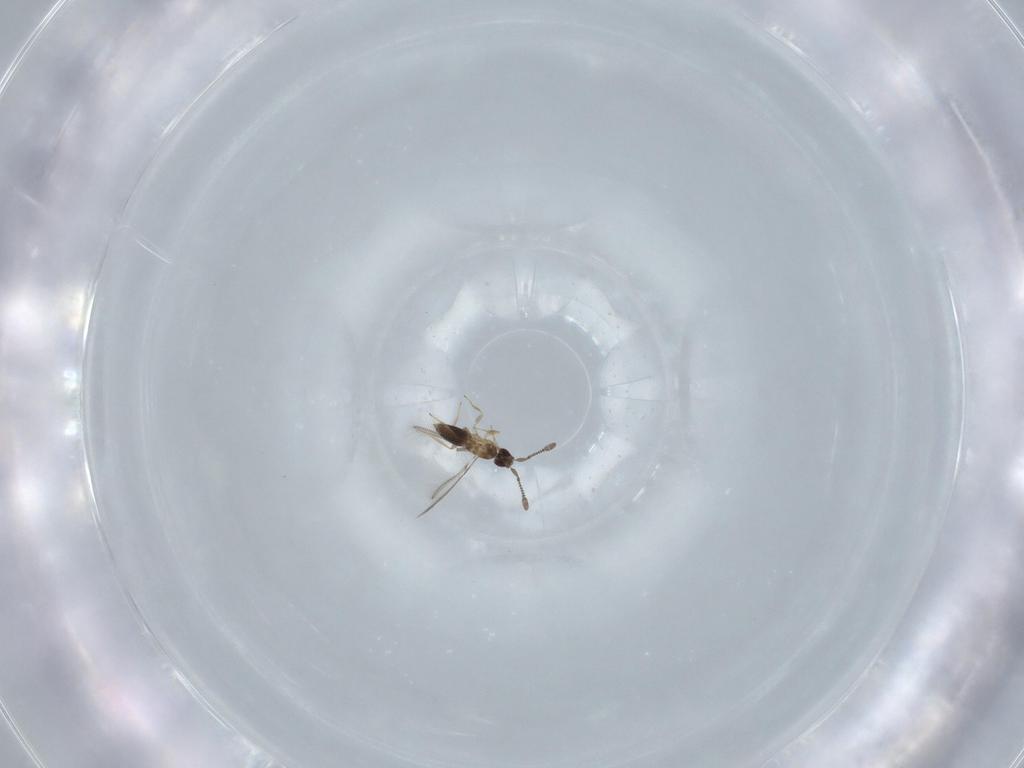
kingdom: Animalia
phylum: Arthropoda
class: Insecta
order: Hymenoptera
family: Mymaridae
